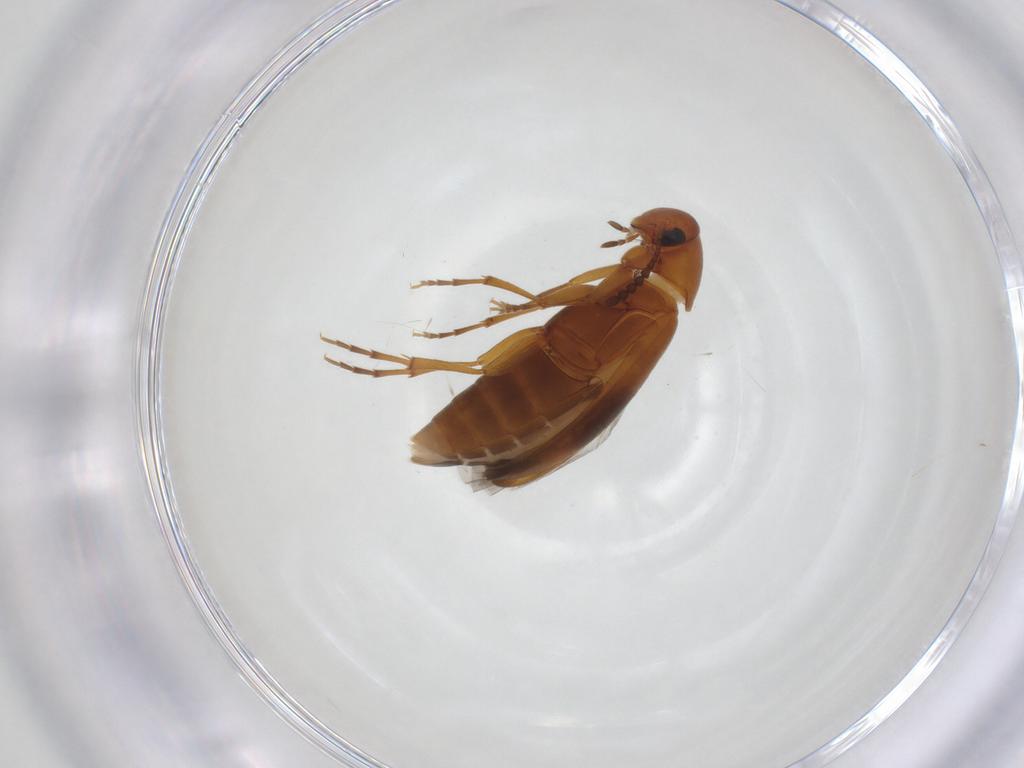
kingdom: Animalia
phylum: Arthropoda
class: Insecta
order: Coleoptera
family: Scraptiidae
